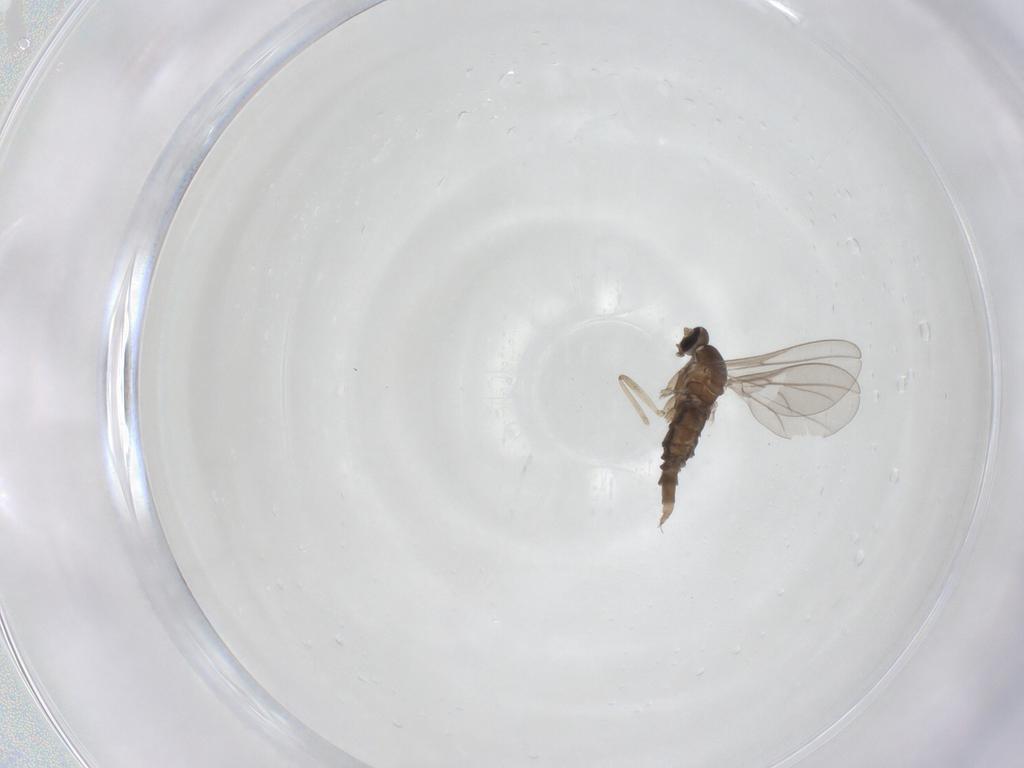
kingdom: Animalia
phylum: Arthropoda
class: Insecta
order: Diptera
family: Cecidomyiidae
